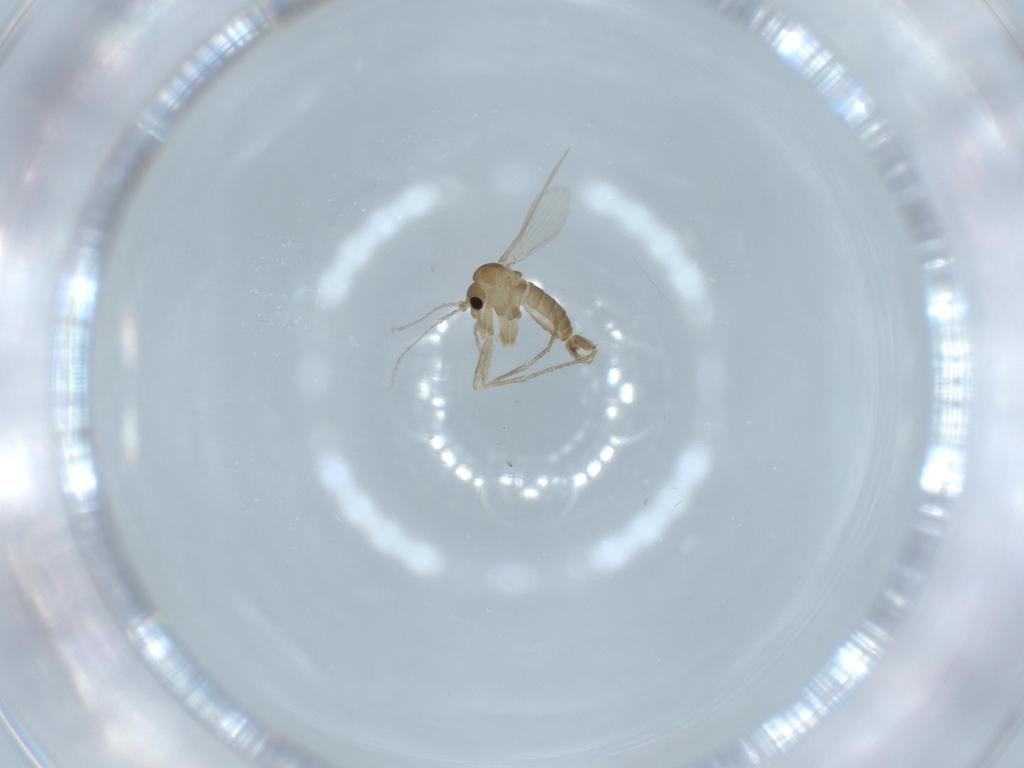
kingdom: Animalia
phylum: Arthropoda
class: Insecta
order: Diptera
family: Psychodidae
